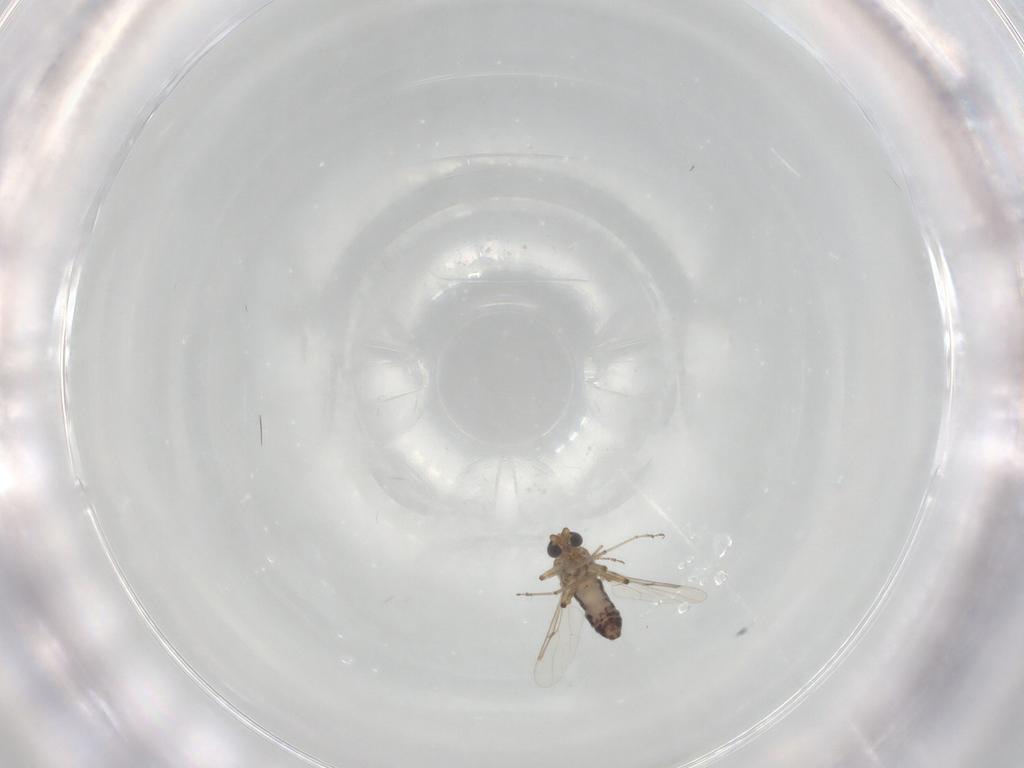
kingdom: Animalia
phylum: Arthropoda
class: Insecta
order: Diptera
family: Ceratopogonidae
